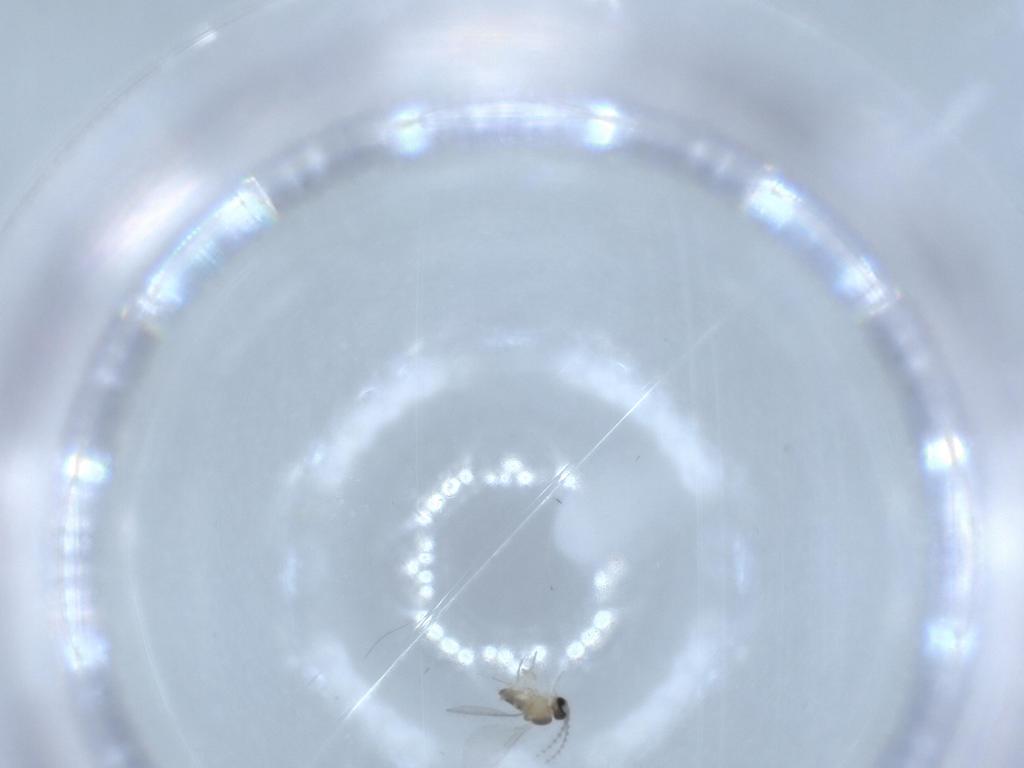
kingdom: Animalia
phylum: Arthropoda
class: Insecta
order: Diptera
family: Cecidomyiidae
